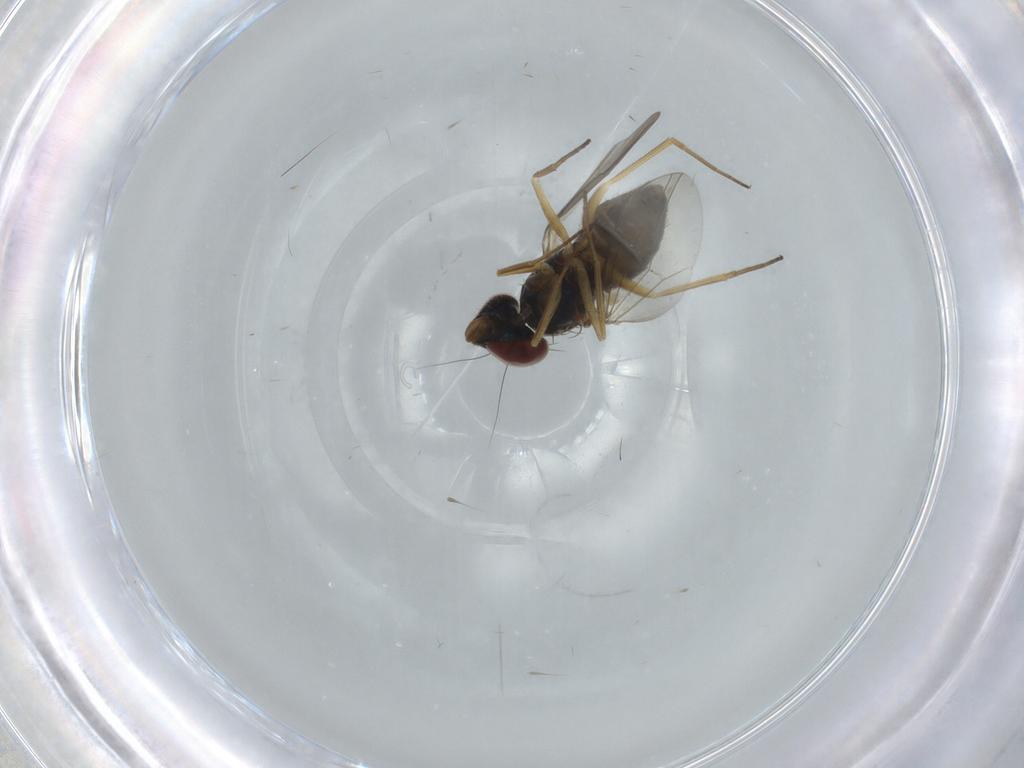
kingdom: Animalia
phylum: Arthropoda
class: Insecta
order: Diptera
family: Dolichopodidae
